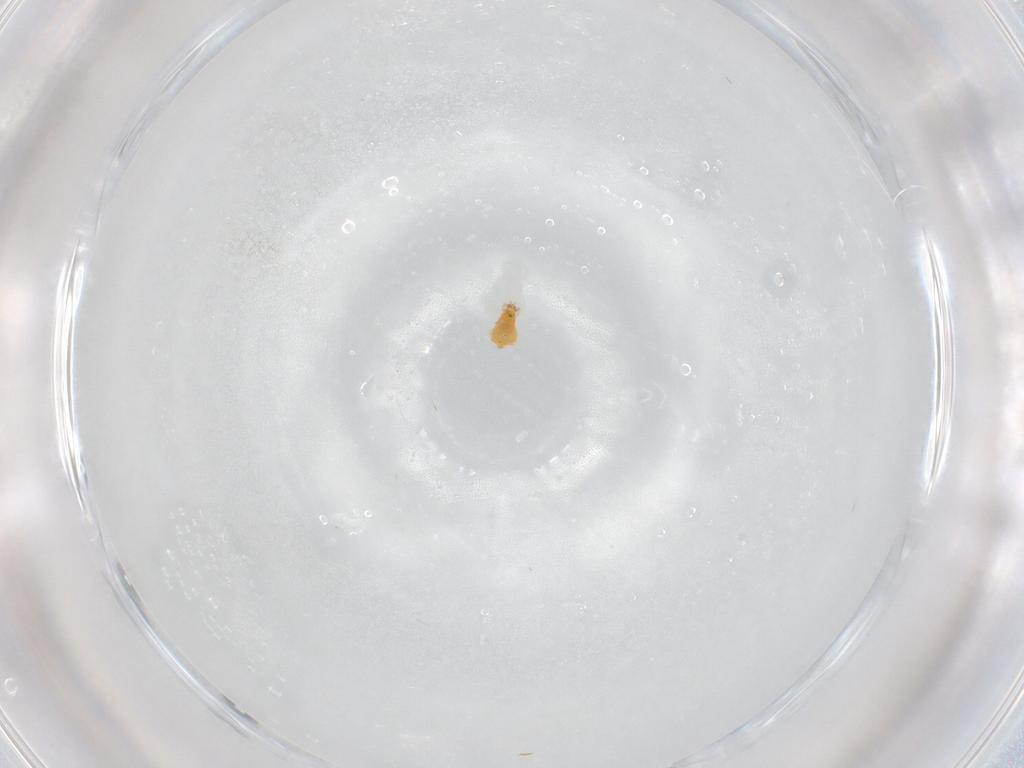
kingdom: Animalia
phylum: Arthropoda
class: Insecta
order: Thysanoptera
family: Melanthripidae
